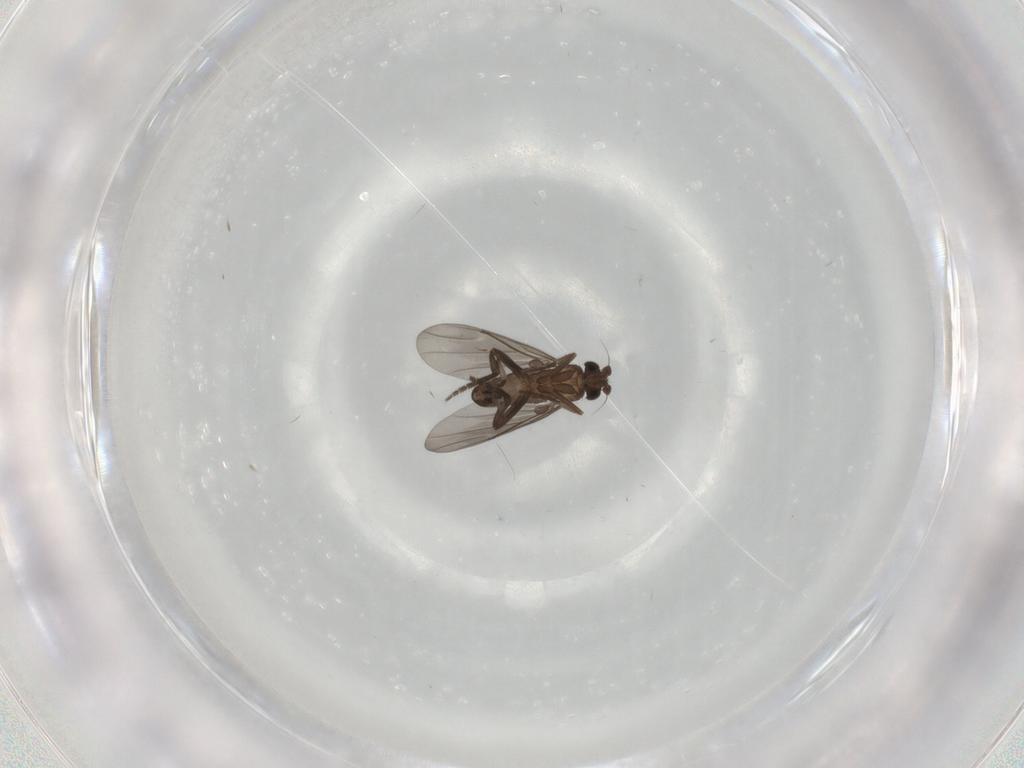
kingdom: Animalia
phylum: Arthropoda
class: Insecta
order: Diptera
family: Phoridae
